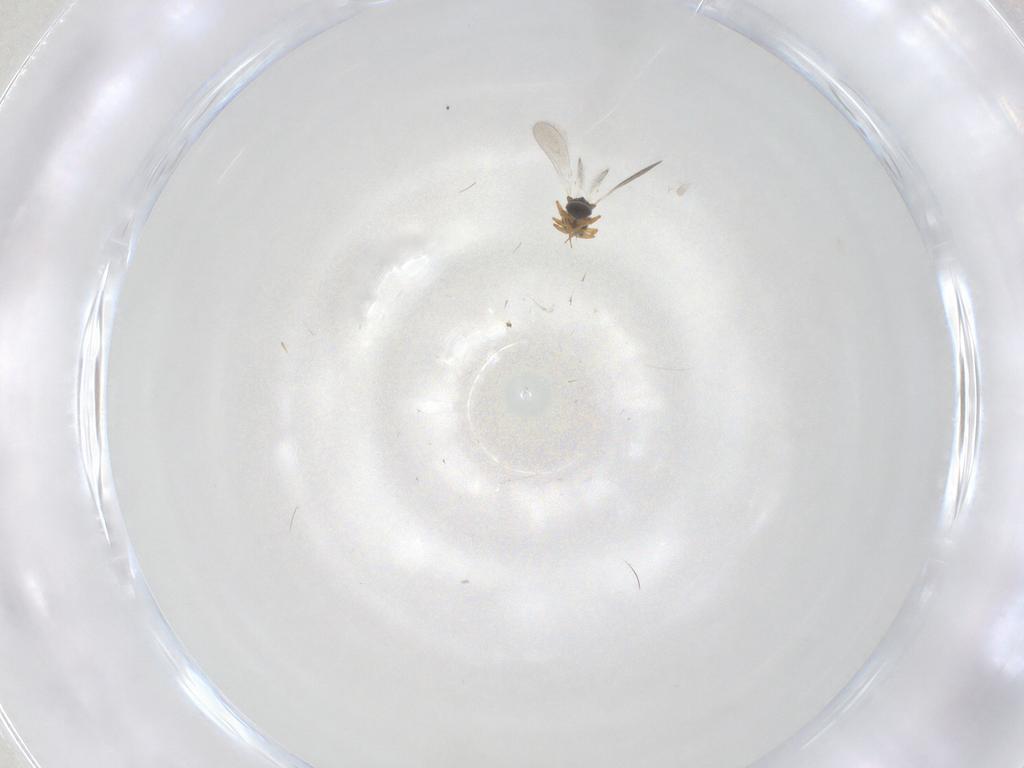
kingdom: Animalia
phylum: Arthropoda
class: Insecta
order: Hymenoptera
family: Platygastridae
